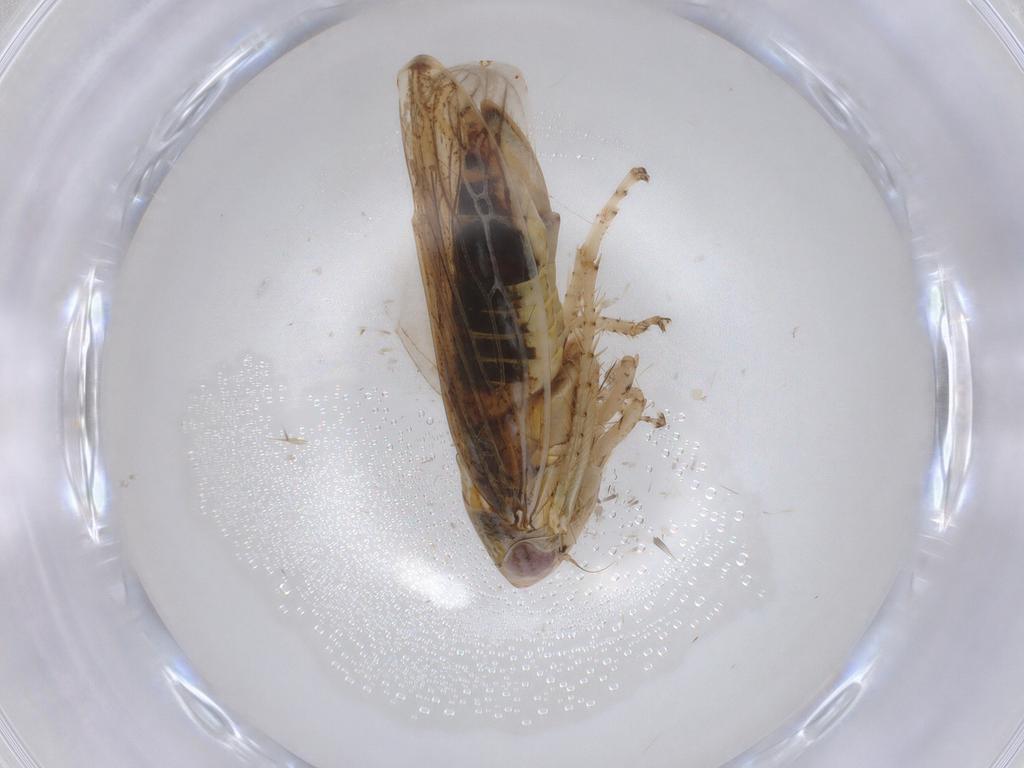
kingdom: Animalia
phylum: Arthropoda
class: Insecta
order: Hemiptera
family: Cicadellidae
